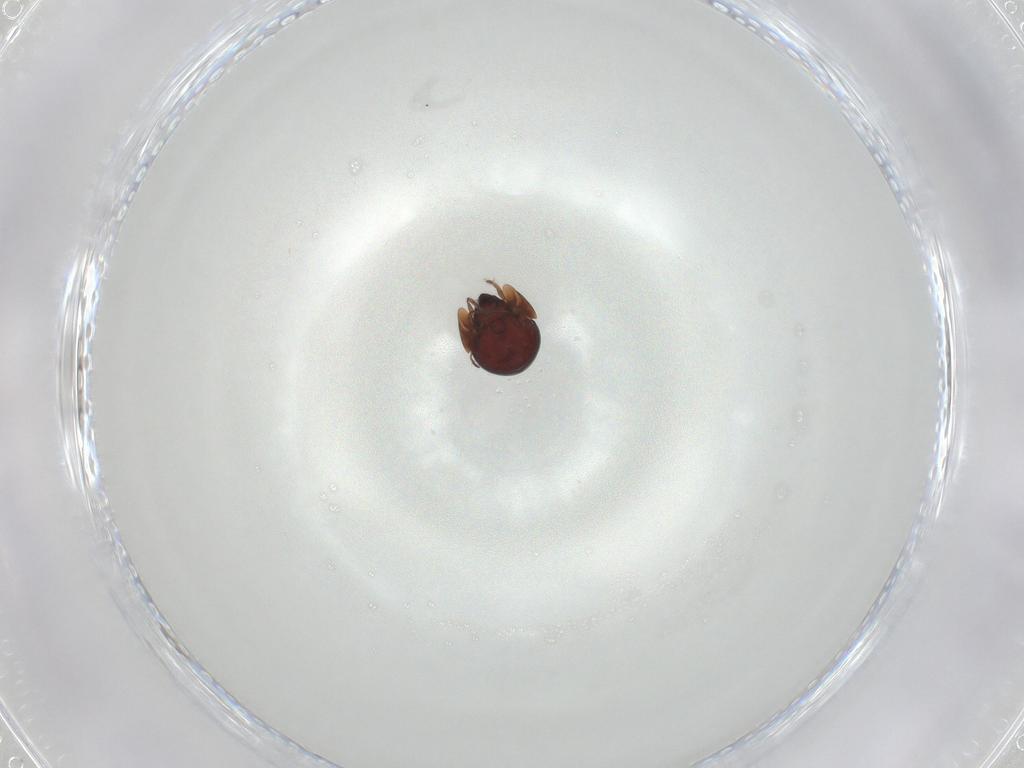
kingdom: Animalia
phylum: Arthropoda
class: Arachnida
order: Sarcoptiformes
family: Galumnidae
